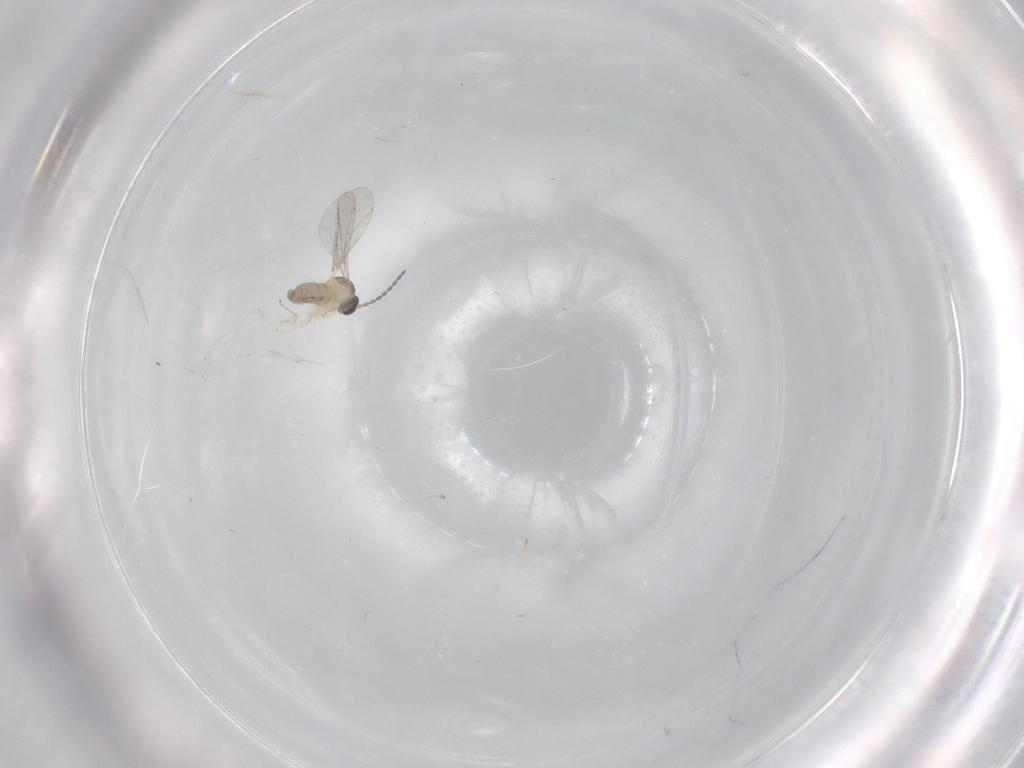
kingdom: Animalia
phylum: Arthropoda
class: Insecta
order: Diptera
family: Cecidomyiidae
